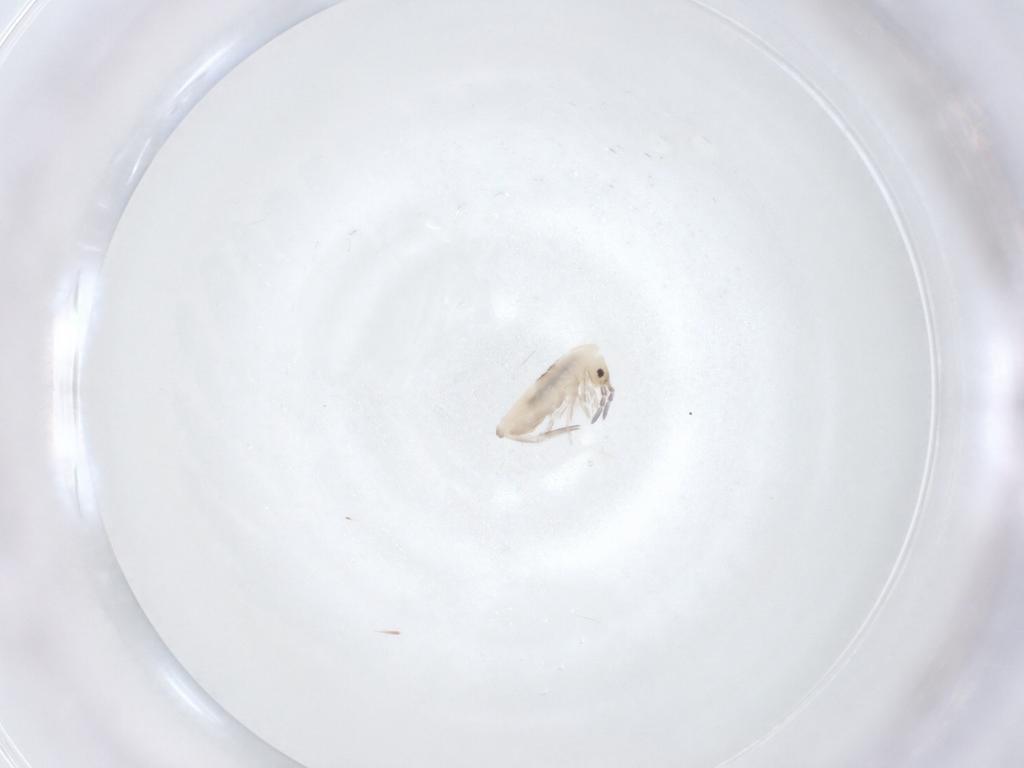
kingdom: Animalia
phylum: Arthropoda
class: Collembola
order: Entomobryomorpha
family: Entomobryidae
